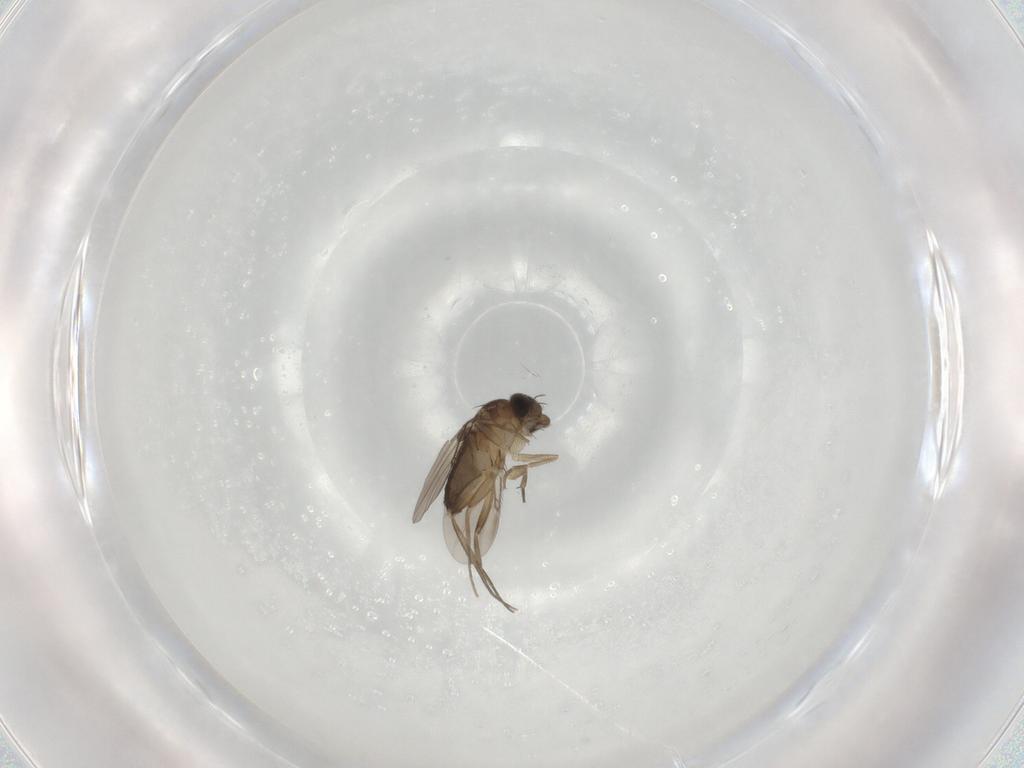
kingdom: Animalia
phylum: Arthropoda
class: Insecta
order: Diptera
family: Phoridae
